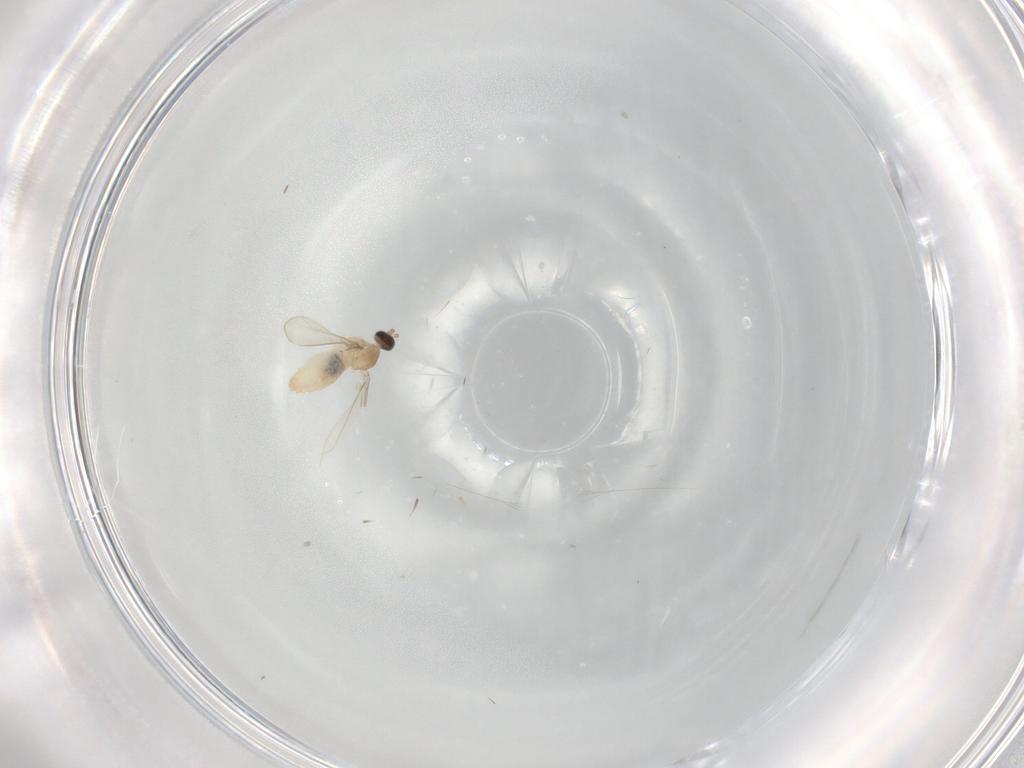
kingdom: Animalia
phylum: Arthropoda
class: Insecta
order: Diptera
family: Cecidomyiidae
